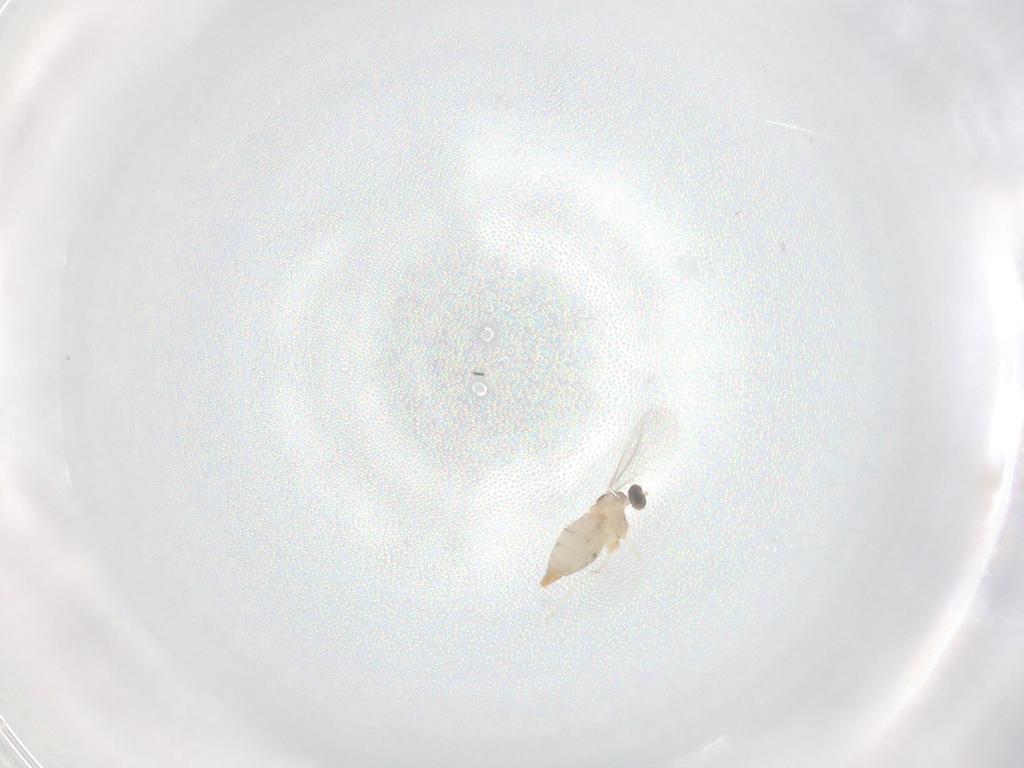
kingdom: Animalia
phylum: Arthropoda
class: Insecta
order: Diptera
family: Cecidomyiidae
